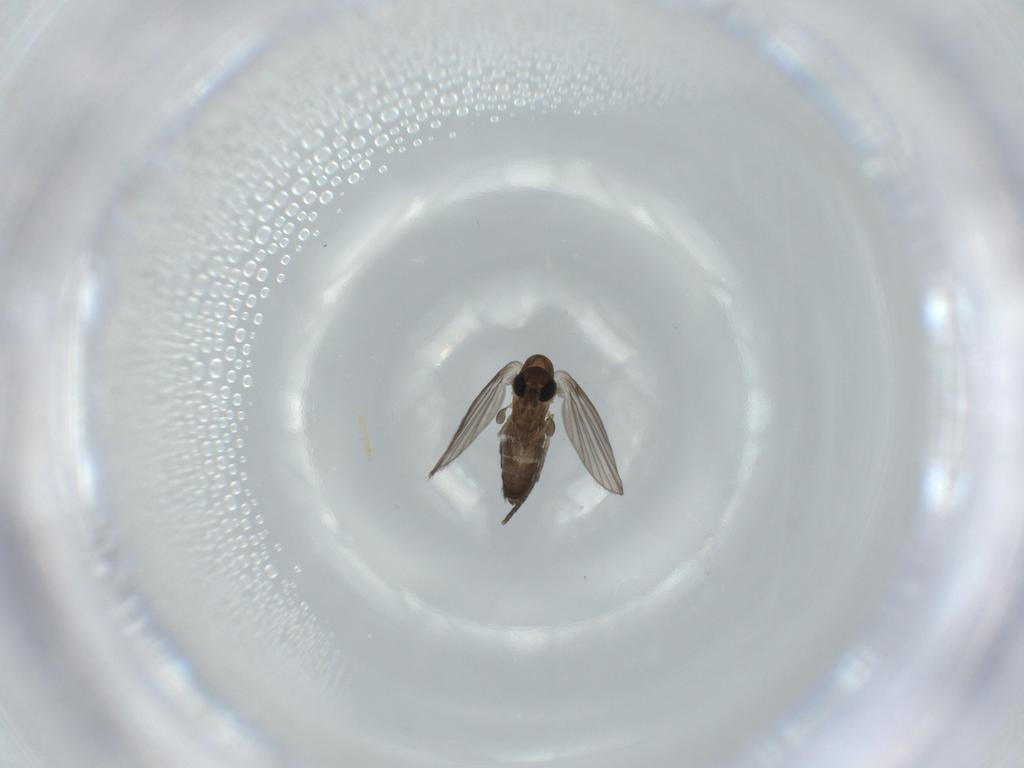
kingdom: Animalia
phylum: Arthropoda
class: Insecta
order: Diptera
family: Psychodidae
